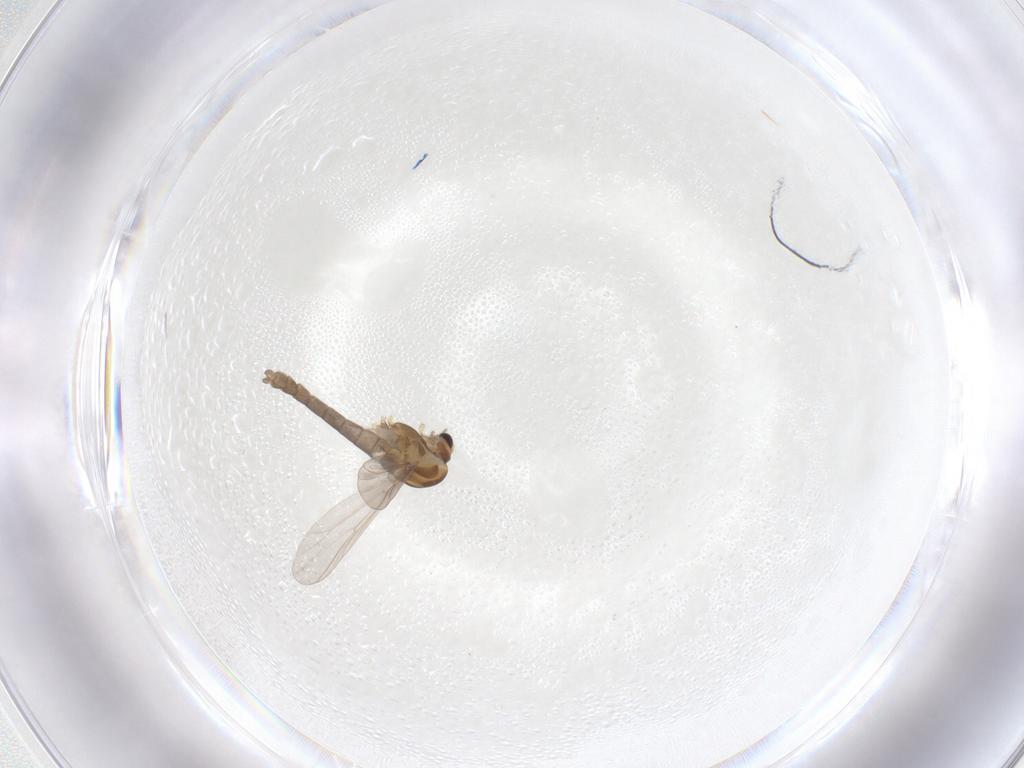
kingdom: Animalia
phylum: Arthropoda
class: Insecta
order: Diptera
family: Chironomidae
